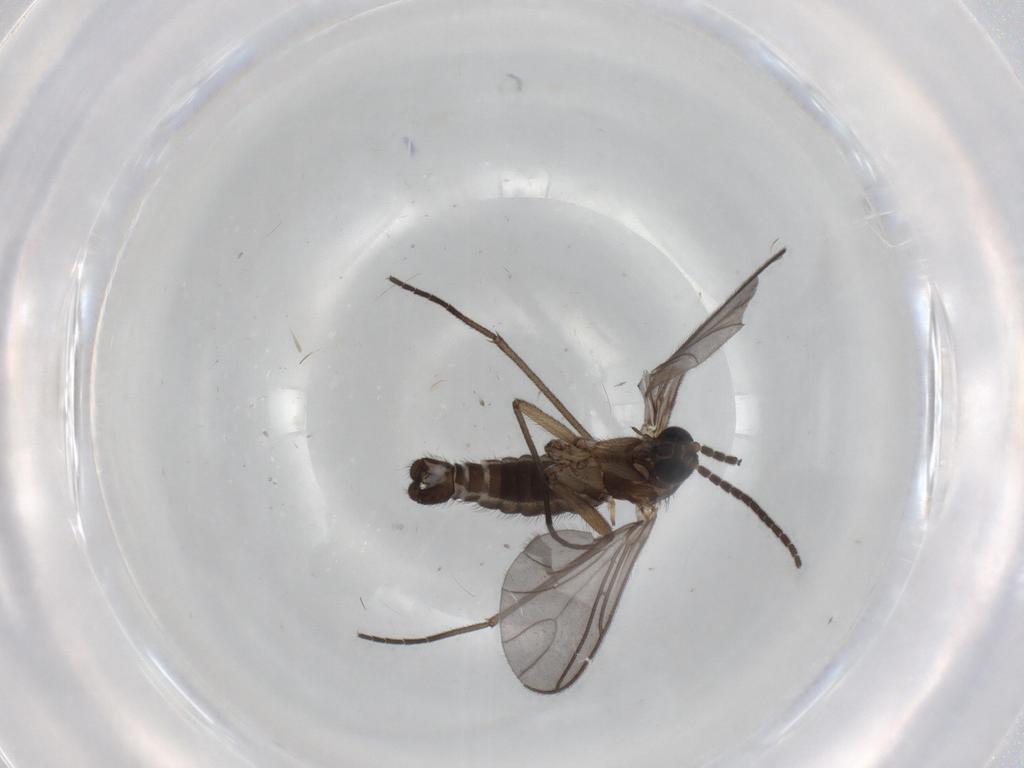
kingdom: Animalia
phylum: Arthropoda
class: Insecta
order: Diptera
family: Sciaridae
